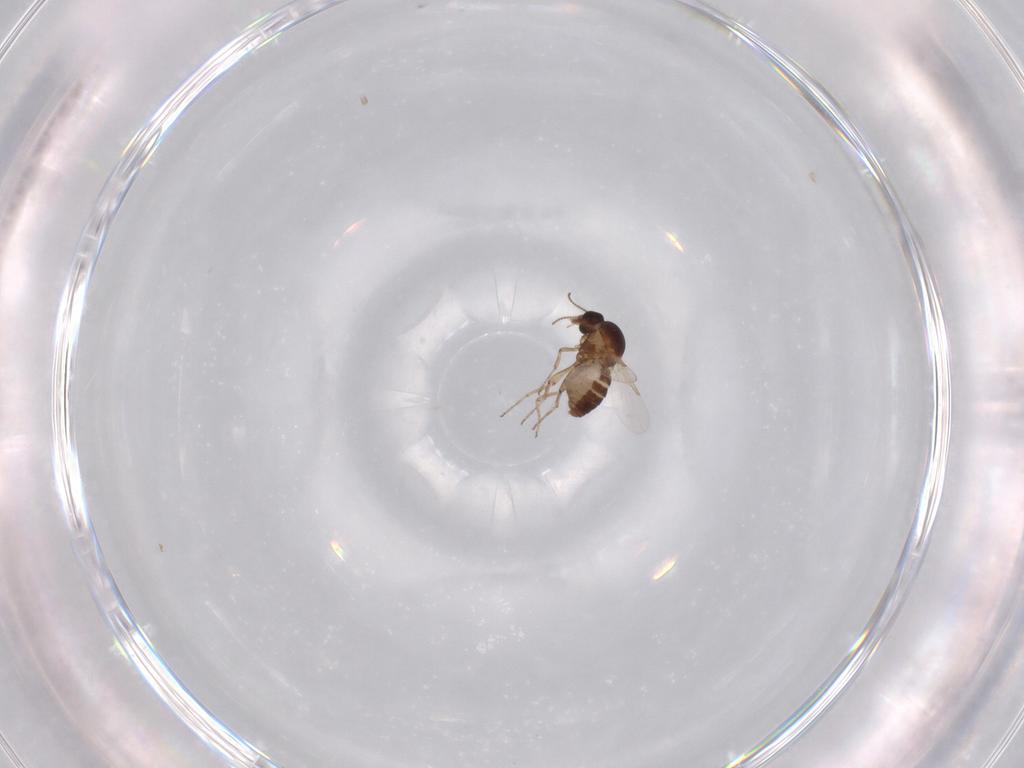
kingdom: Animalia
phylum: Arthropoda
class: Insecta
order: Diptera
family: Ceratopogonidae
